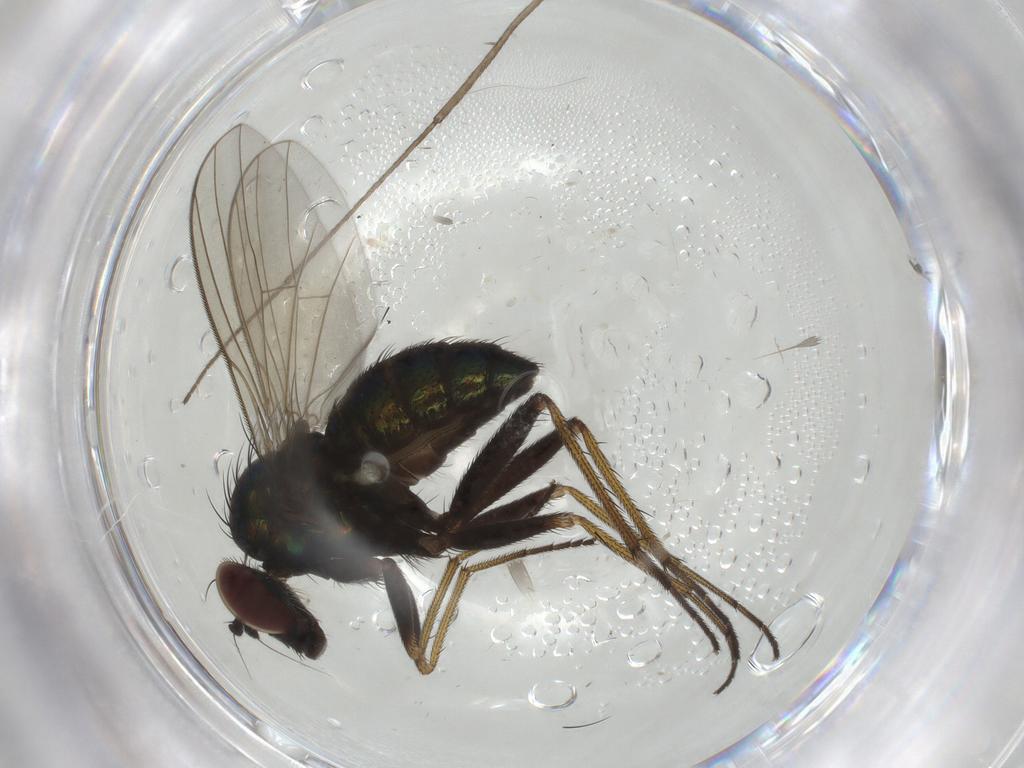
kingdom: Animalia
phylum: Arthropoda
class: Insecta
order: Diptera
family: Dolichopodidae
